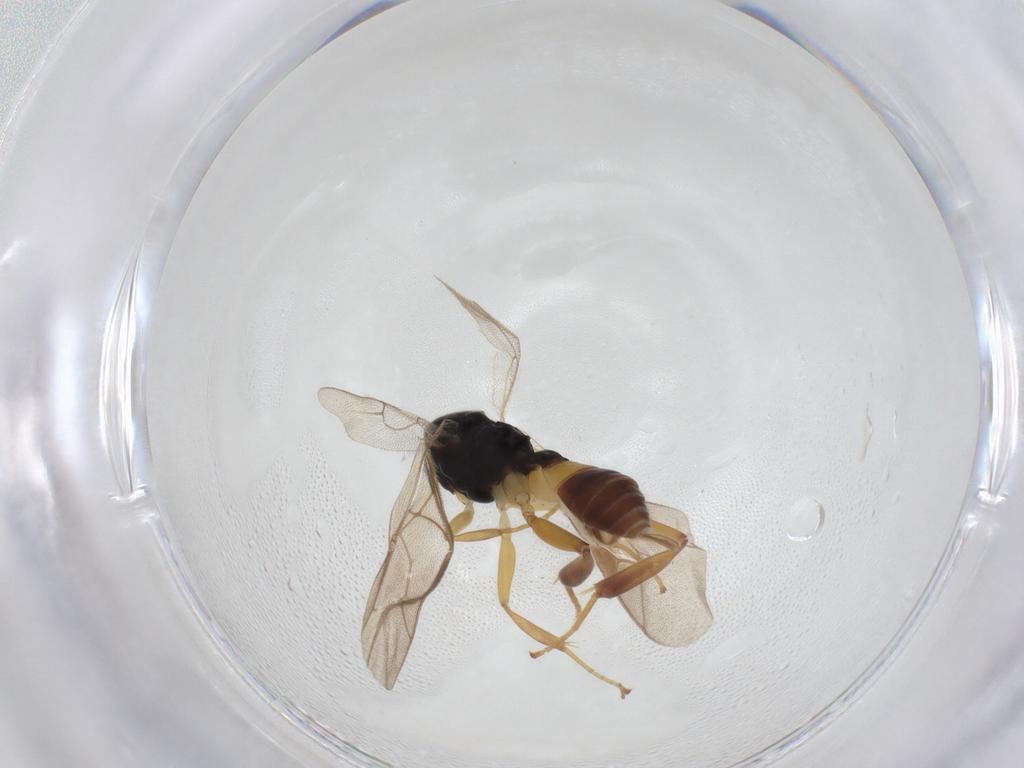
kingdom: Animalia
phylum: Arthropoda
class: Insecta
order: Hymenoptera
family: Ichneumonidae
